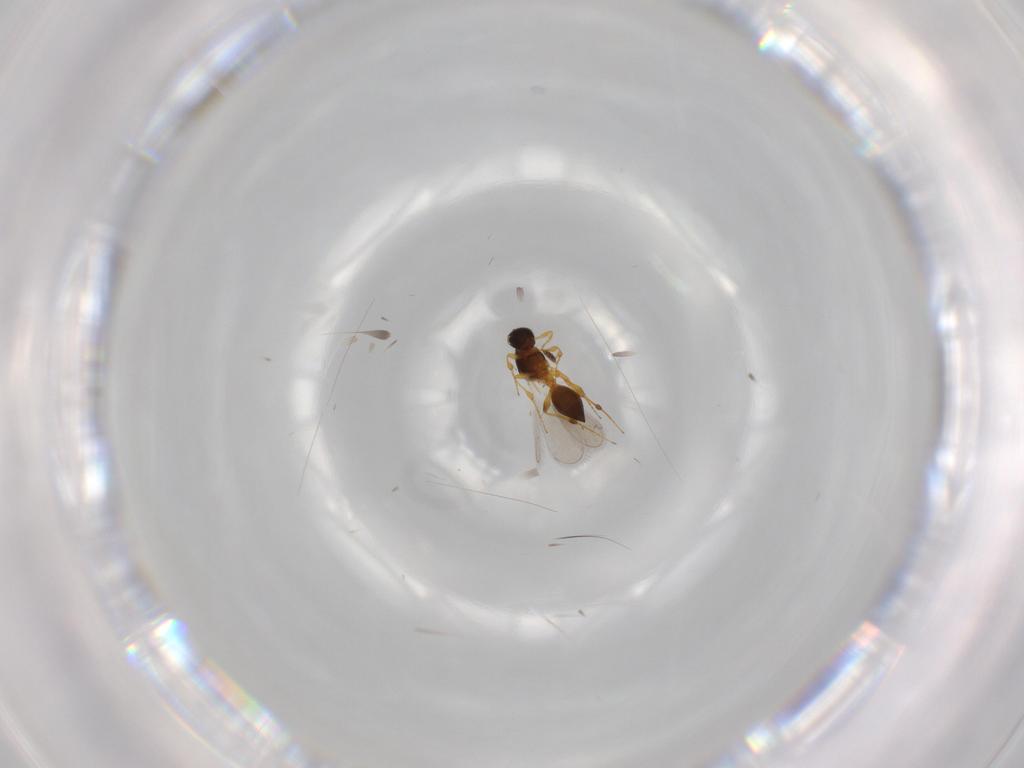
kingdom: Animalia
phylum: Arthropoda
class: Insecta
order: Hymenoptera
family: Platygastridae
